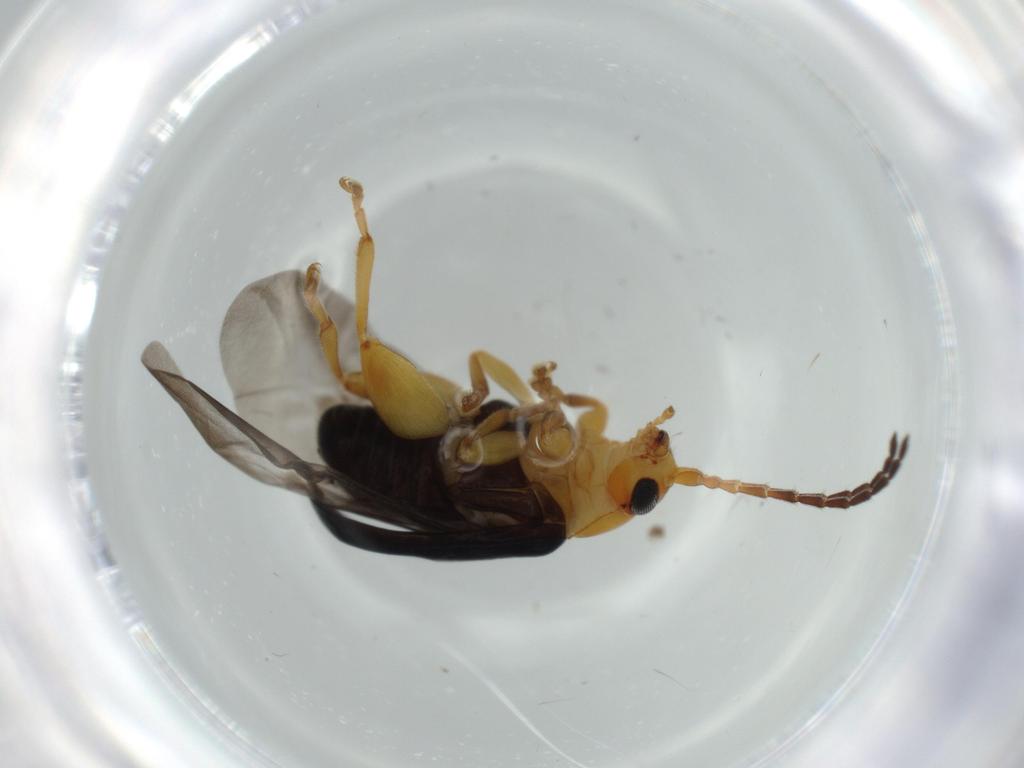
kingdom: Animalia
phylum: Arthropoda
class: Insecta
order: Coleoptera
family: Chrysomelidae
